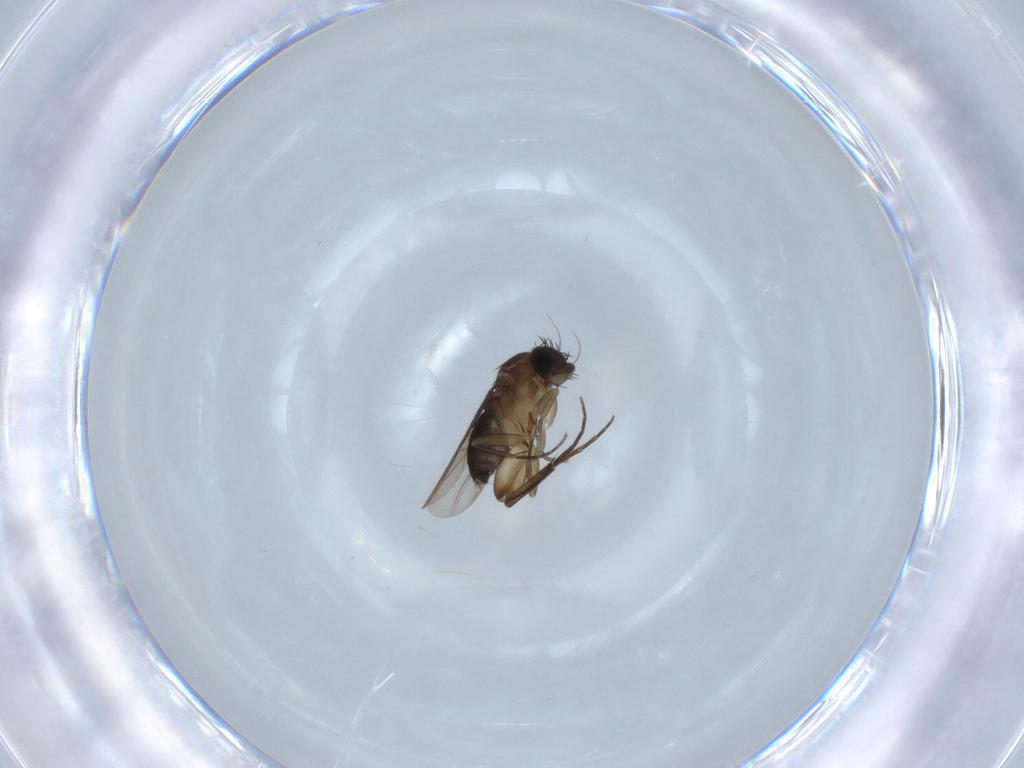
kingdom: Animalia
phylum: Arthropoda
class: Insecta
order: Diptera
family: Phoridae
